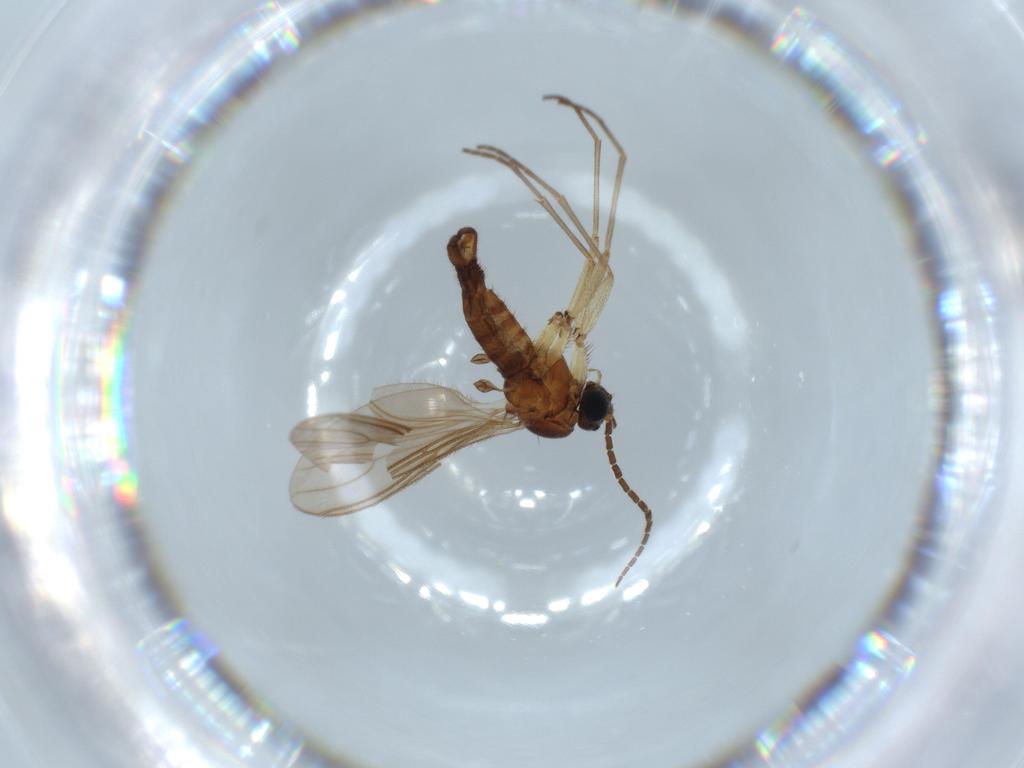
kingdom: Animalia
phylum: Arthropoda
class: Insecta
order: Diptera
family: Sciaridae
